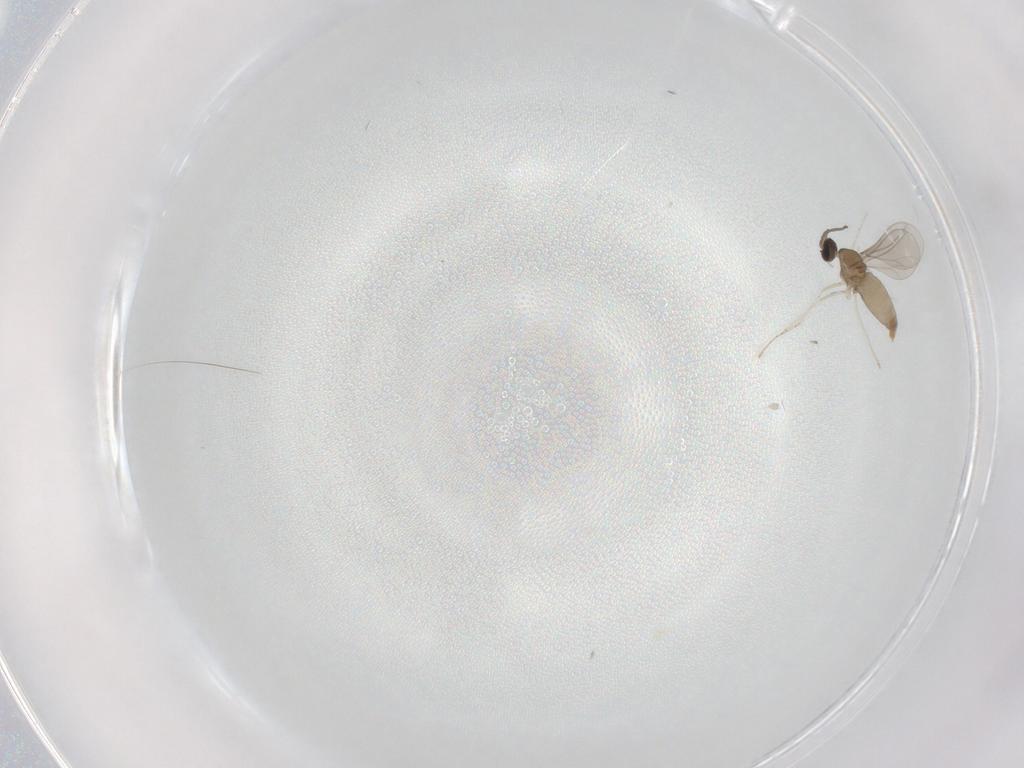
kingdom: Animalia
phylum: Arthropoda
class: Insecta
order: Diptera
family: Cecidomyiidae
